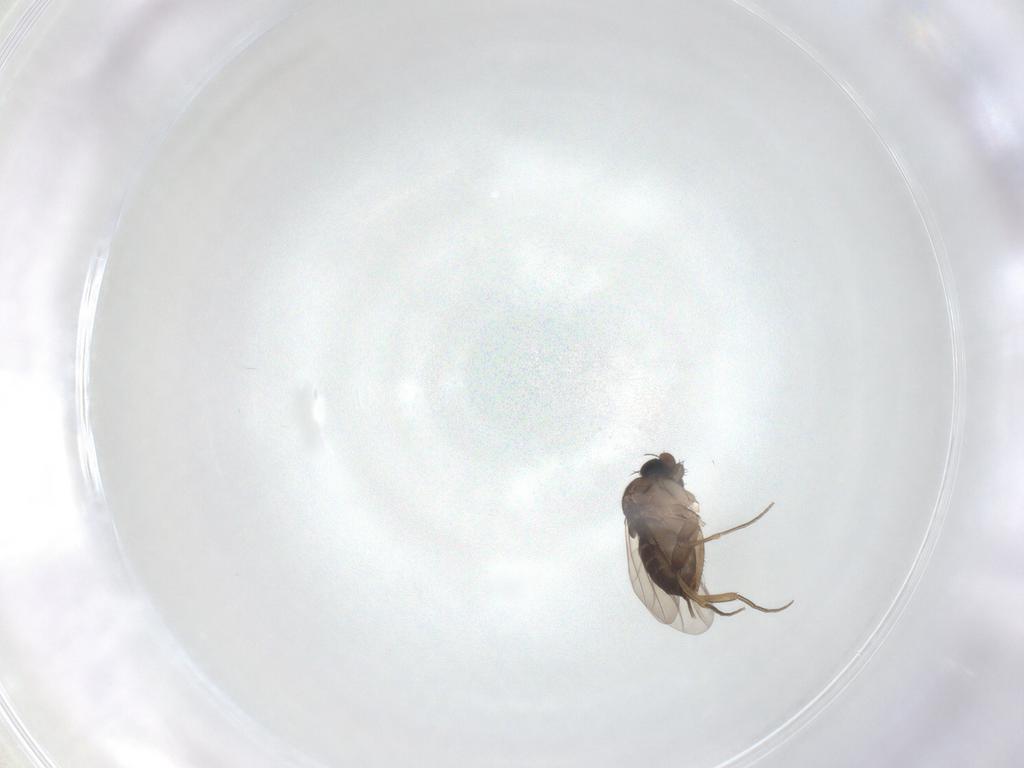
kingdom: Animalia
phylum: Arthropoda
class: Insecta
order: Diptera
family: Phoridae
